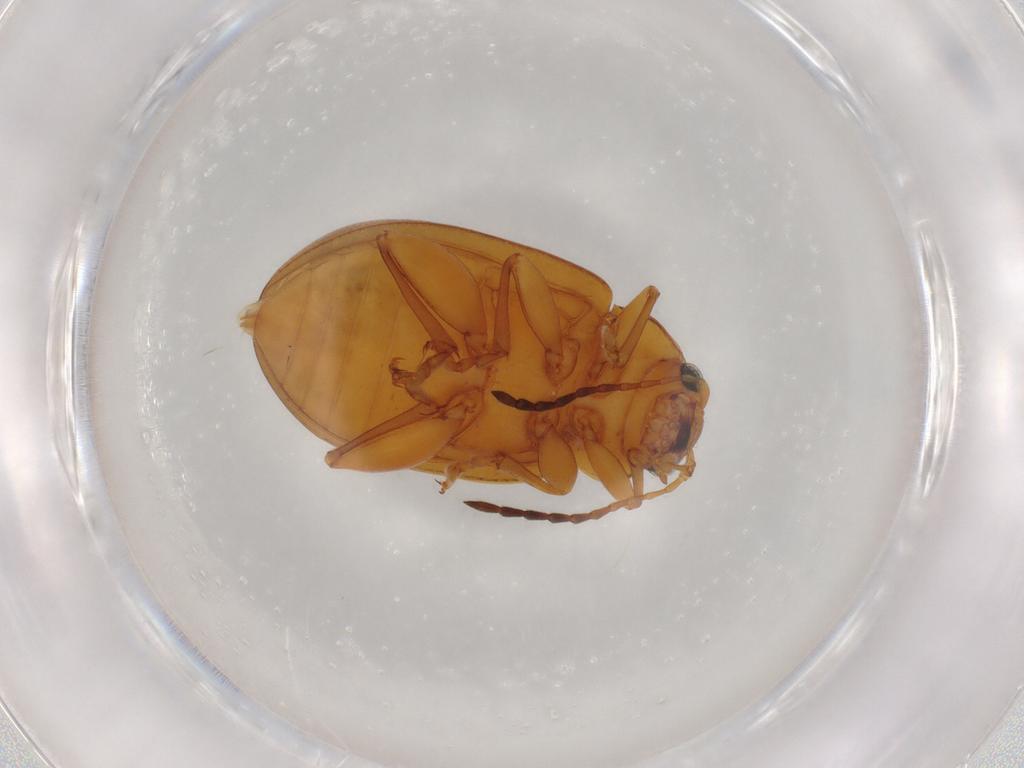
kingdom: Animalia
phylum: Arthropoda
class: Insecta
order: Coleoptera
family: Chrysomelidae
